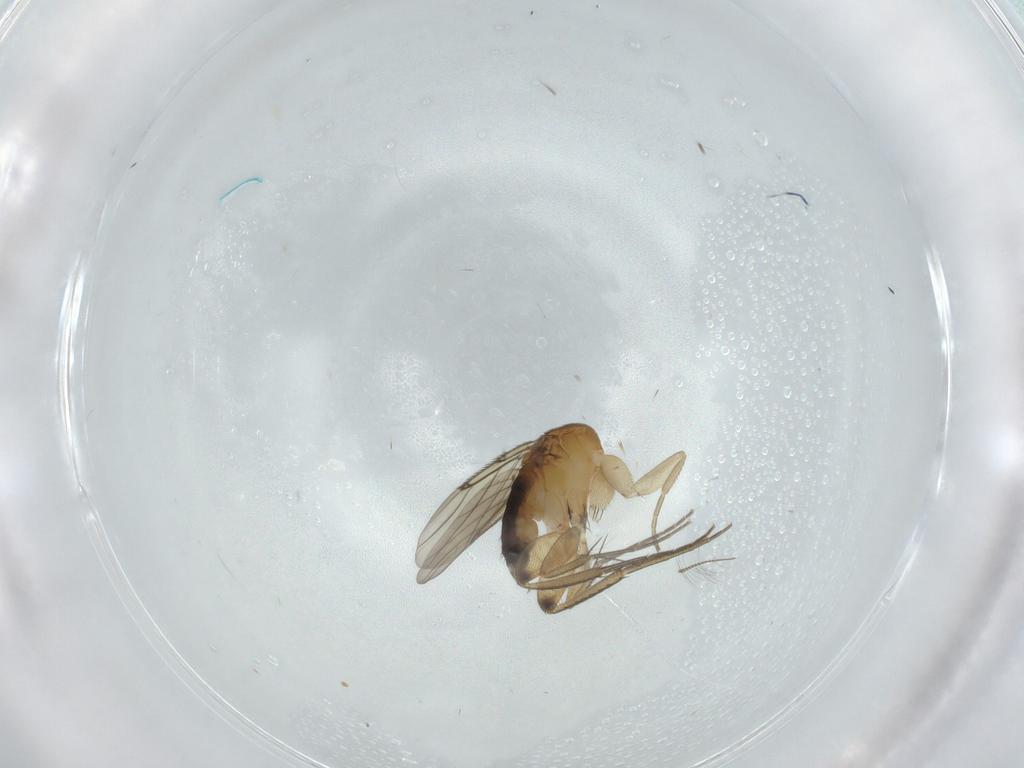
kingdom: Animalia
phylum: Arthropoda
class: Insecta
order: Diptera
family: Phoridae
